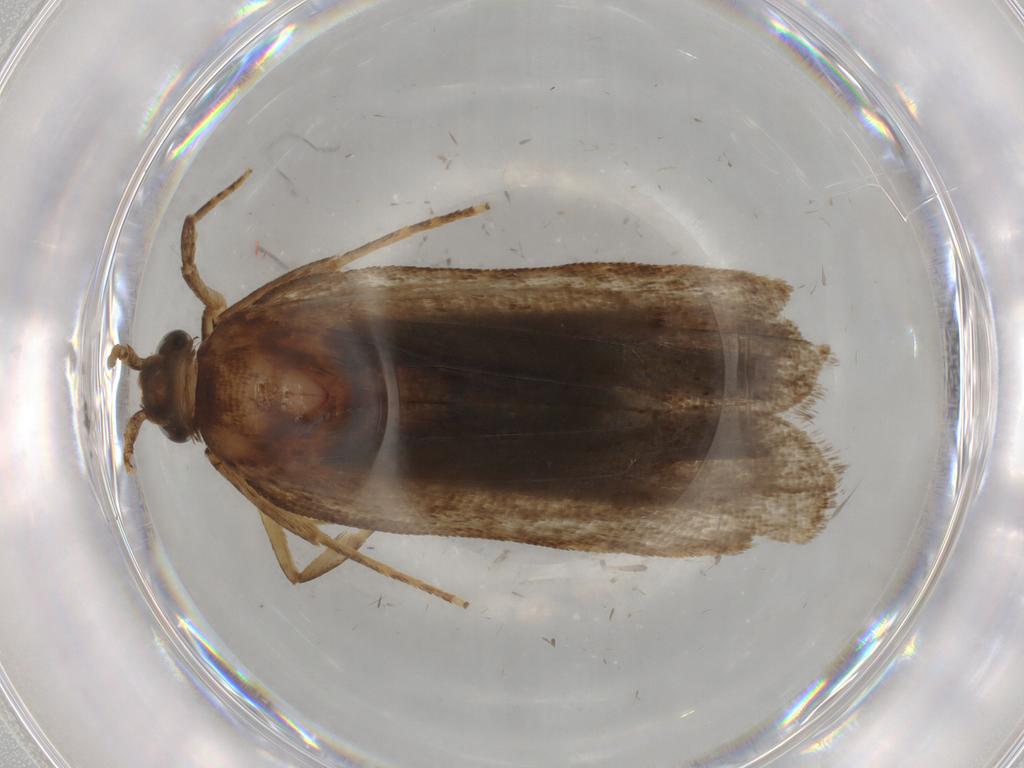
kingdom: Animalia
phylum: Arthropoda
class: Insecta
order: Lepidoptera
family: Autostichidae
